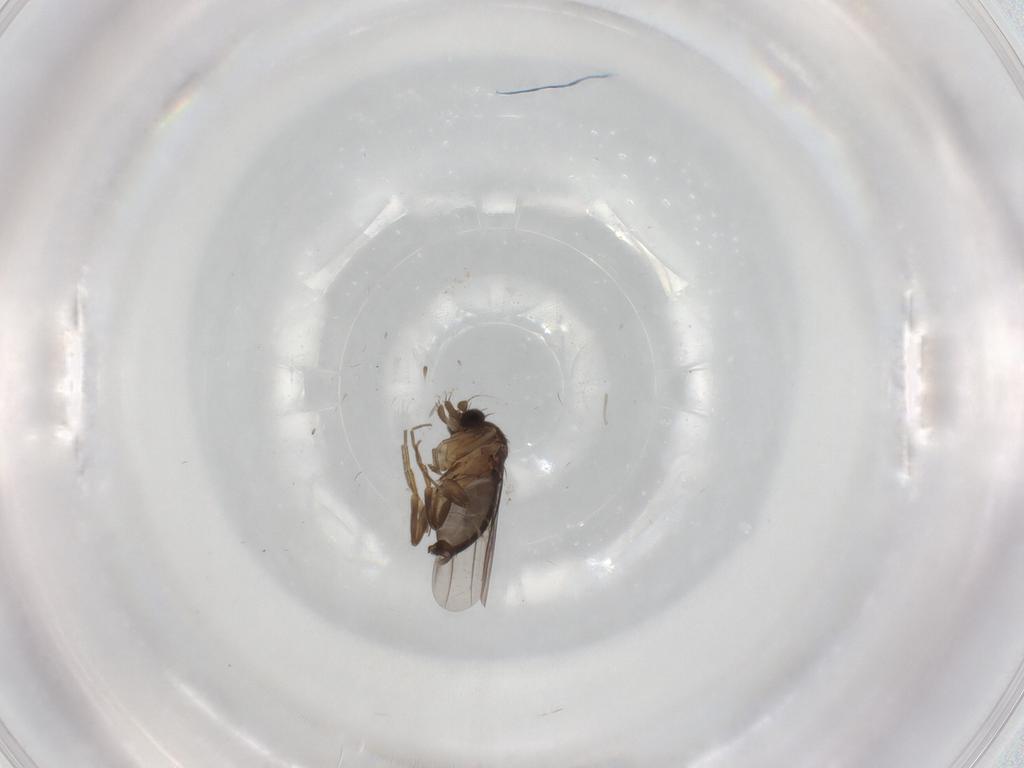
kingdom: Animalia
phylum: Arthropoda
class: Insecta
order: Diptera
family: Phoridae
